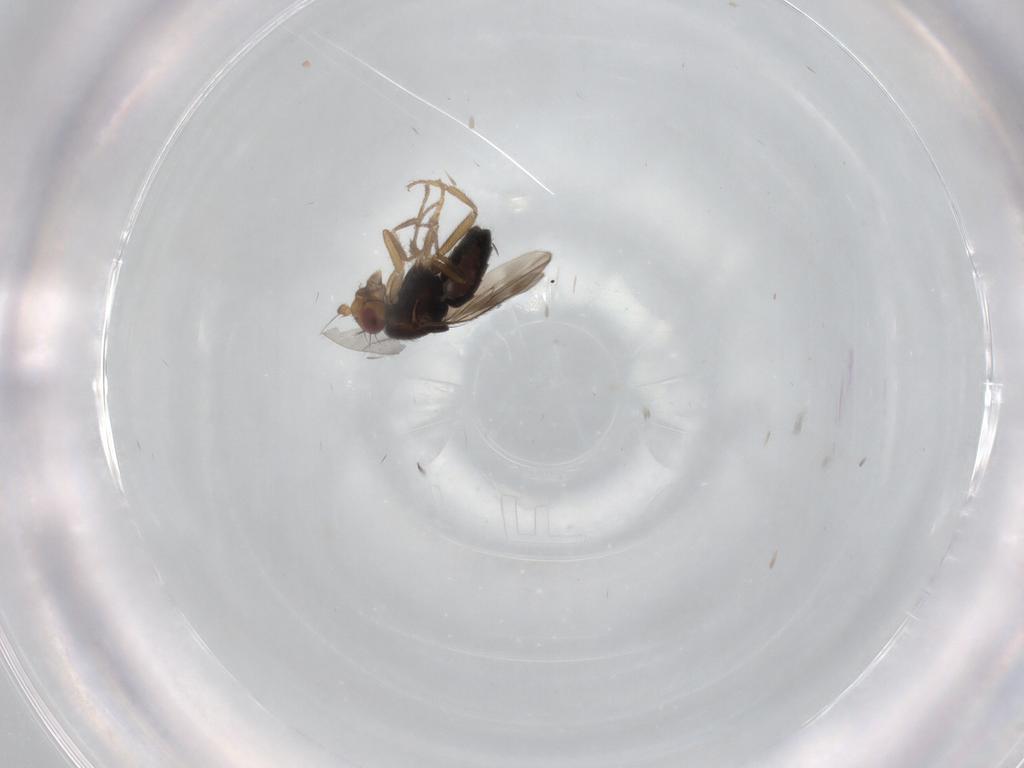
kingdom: Animalia
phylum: Arthropoda
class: Insecta
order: Diptera
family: Sphaeroceridae
